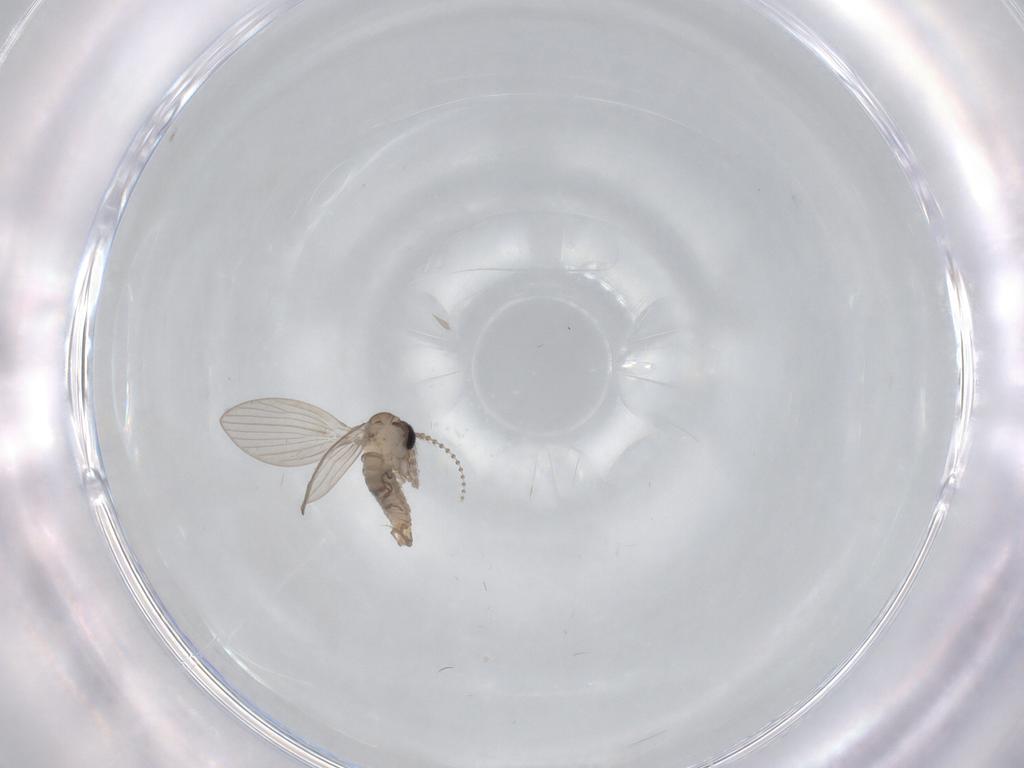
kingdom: Animalia
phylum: Arthropoda
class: Insecta
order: Diptera
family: Psychodidae
